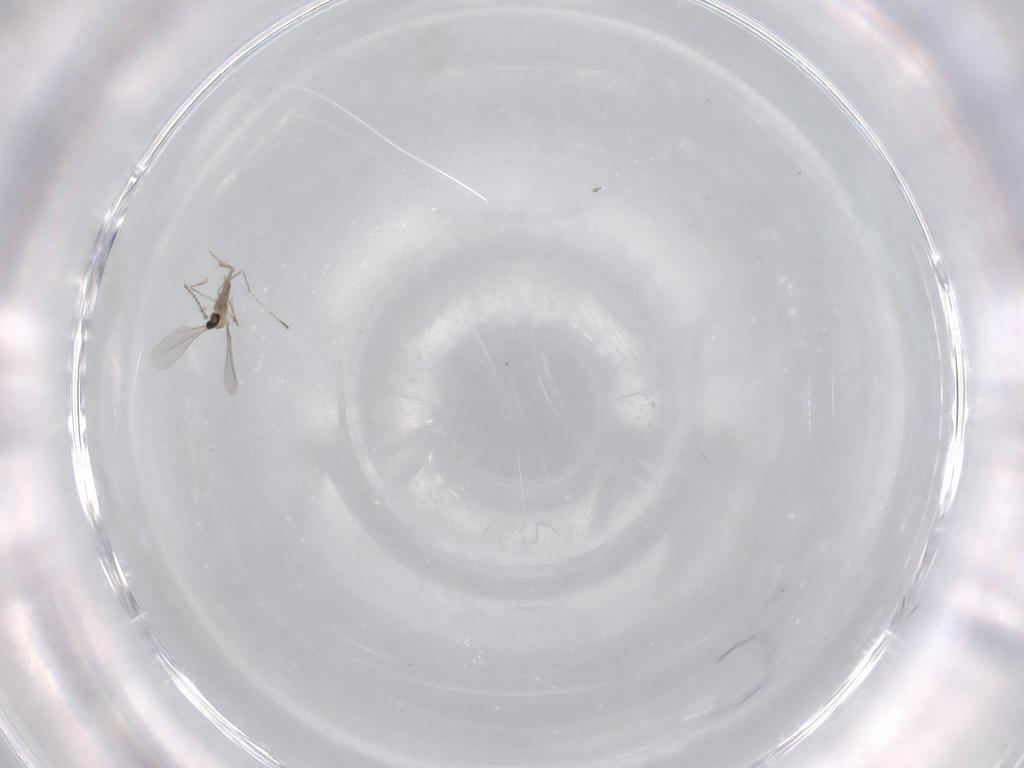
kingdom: Animalia
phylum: Arthropoda
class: Insecta
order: Diptera
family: Cecidomyiidae
